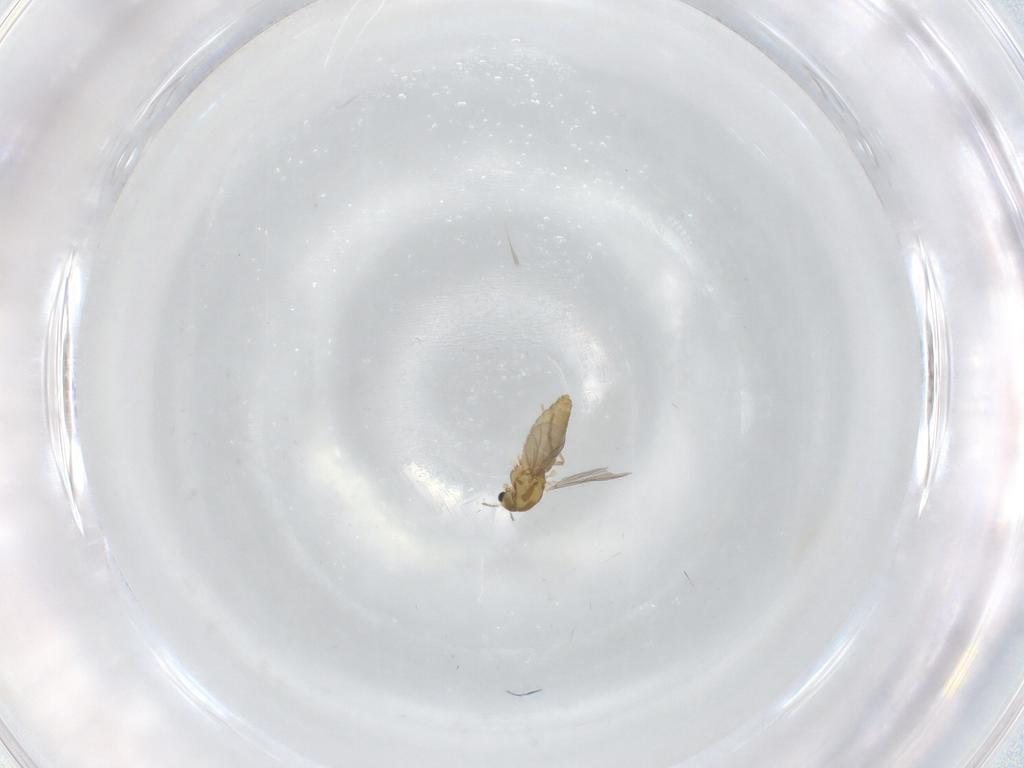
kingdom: Animalia
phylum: Arthropoda
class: Insecta
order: Diptera
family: Chironomidae
